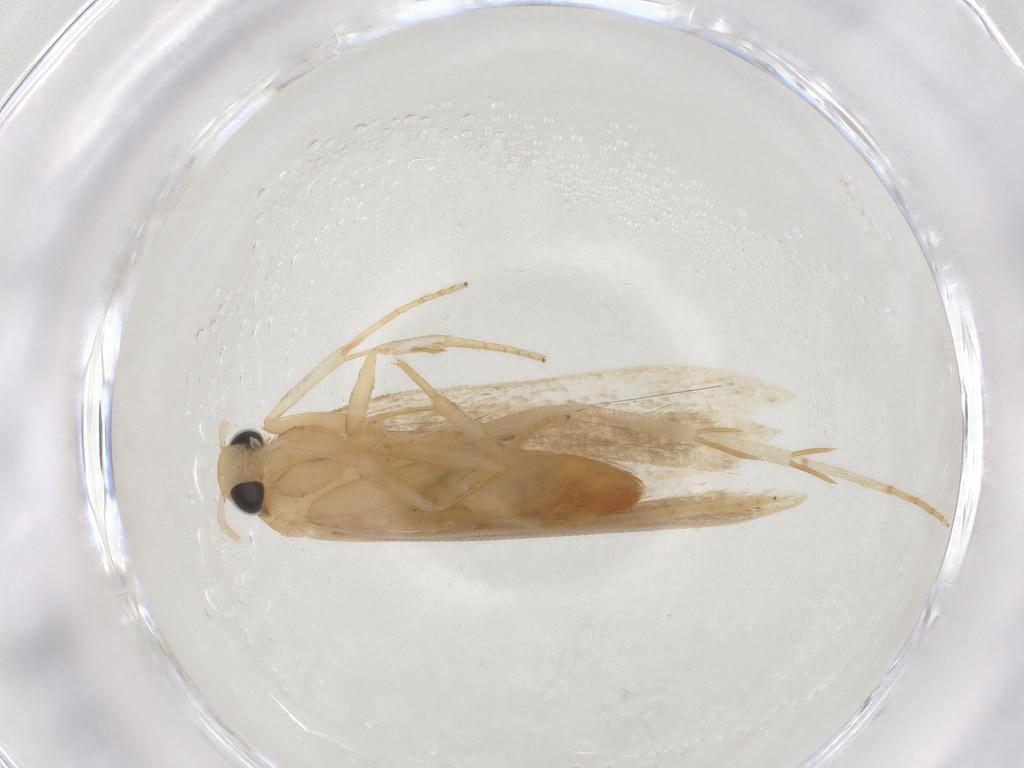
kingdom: Animalia
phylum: Arthropoda
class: Insecta
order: Lepidoptera
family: Gelechiidae
